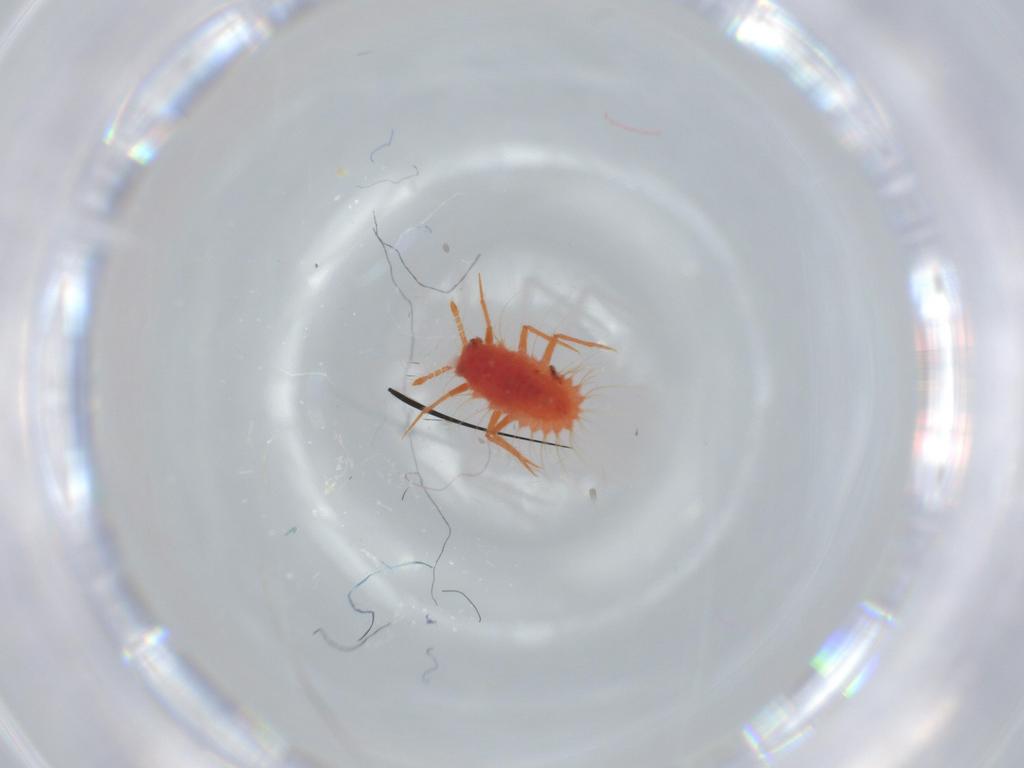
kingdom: Animalia
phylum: Arthropoda
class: Insecta
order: Hemiptera
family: Monophlebidae
